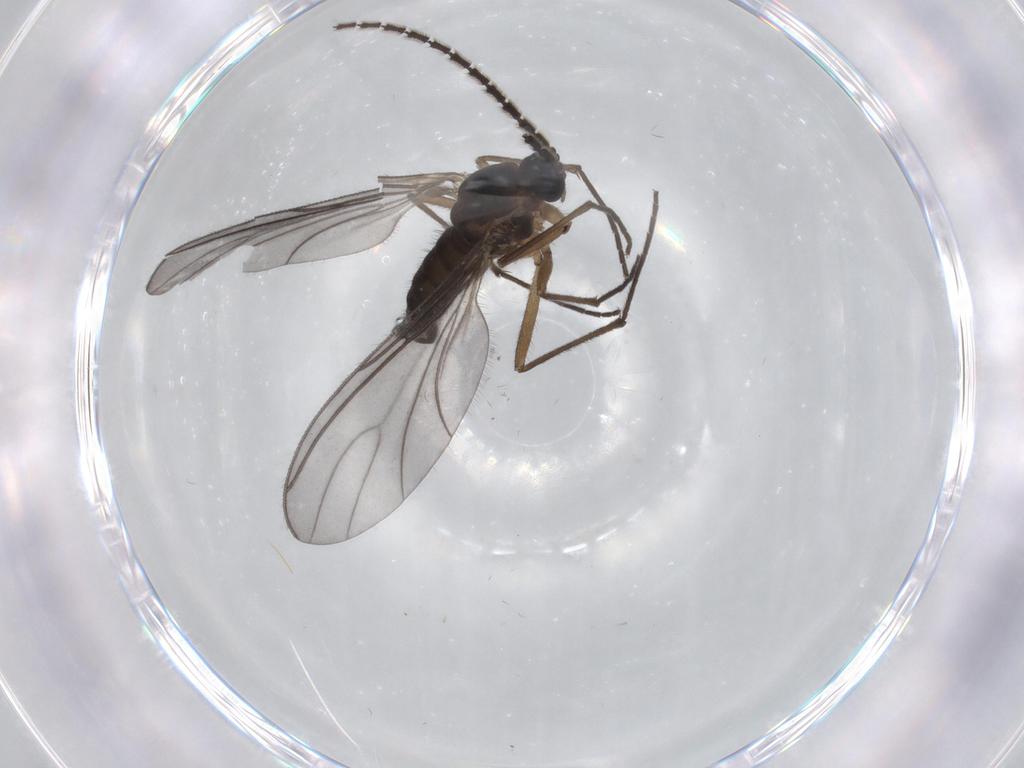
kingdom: Animalia
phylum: Arthropoda
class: Insecta
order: Diptera
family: Sciaridae
